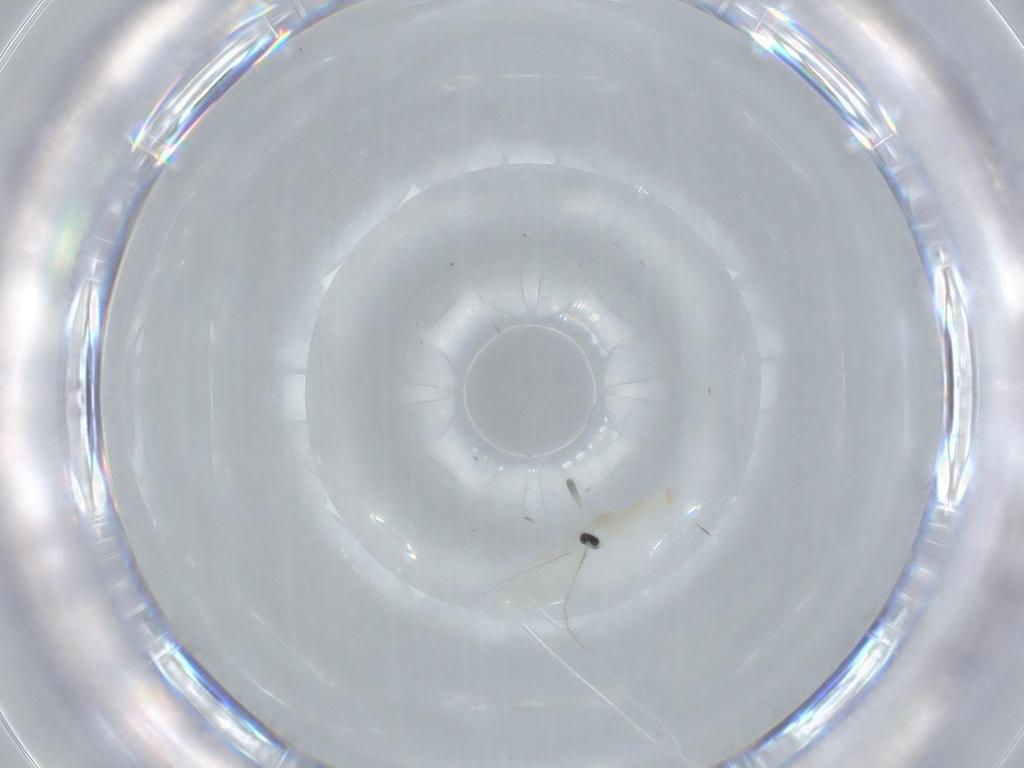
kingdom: Animalia
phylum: Arthropoda
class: Insecta
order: Diptera
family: Cecidomyiidae
